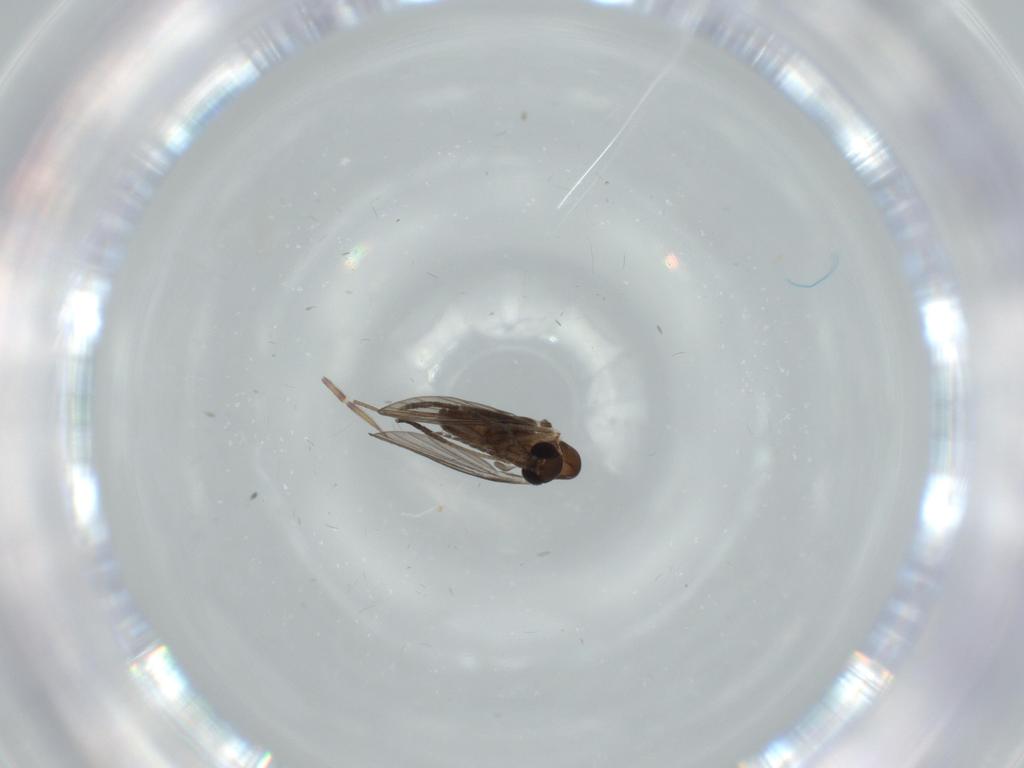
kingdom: Animalia
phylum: Arthropoda
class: Insecta
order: Diptera
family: Psychodidae
